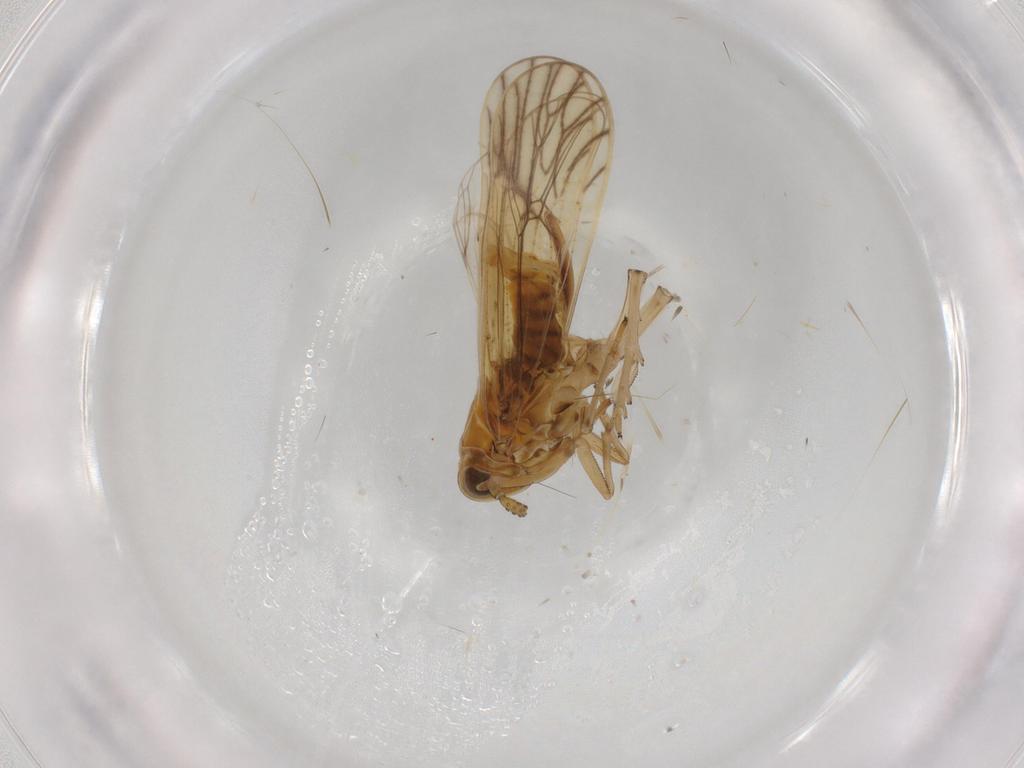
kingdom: Animalia
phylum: Arthropoda
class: Insecta
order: Hemiptera
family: Delphacidae
